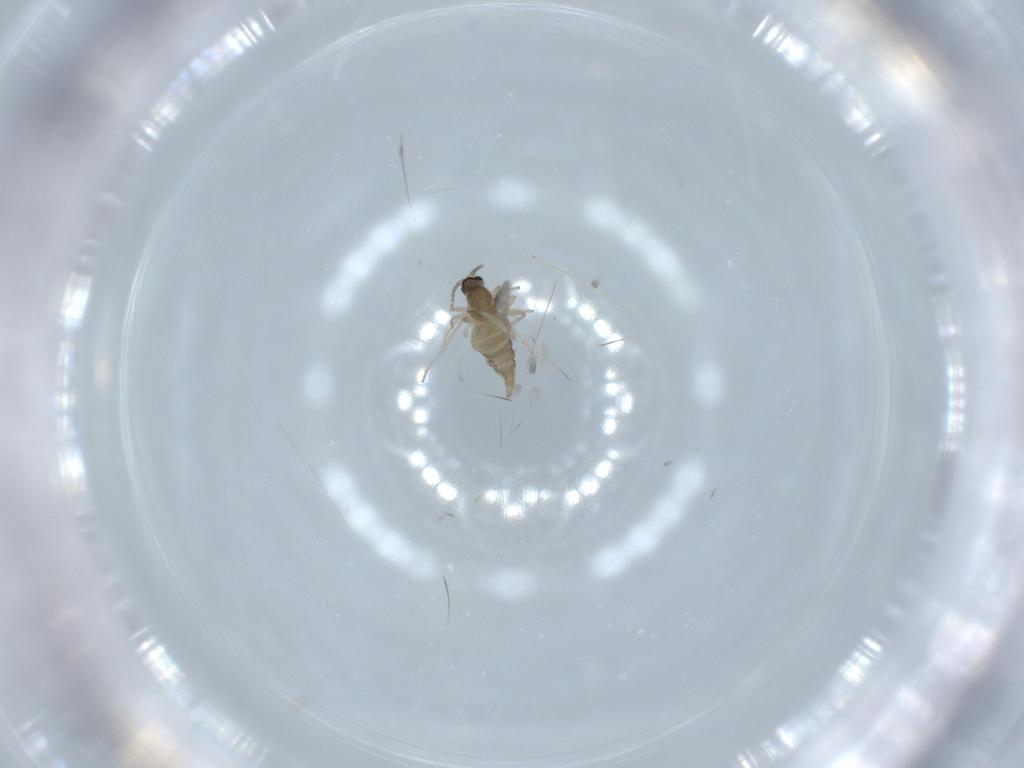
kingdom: Animalia
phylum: Arthropoda
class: Insecta
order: Diptera
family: Cecidomyiidae
